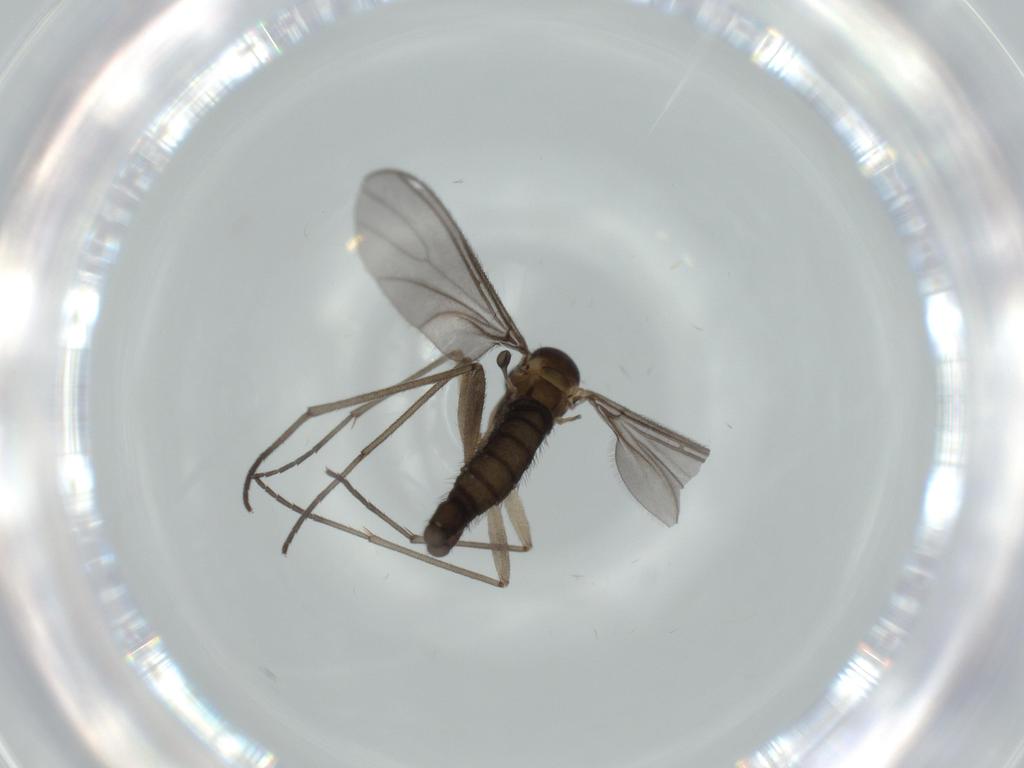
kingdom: Animalia
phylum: Arthropoda
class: Insecta
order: Diptera
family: Sciaridae
